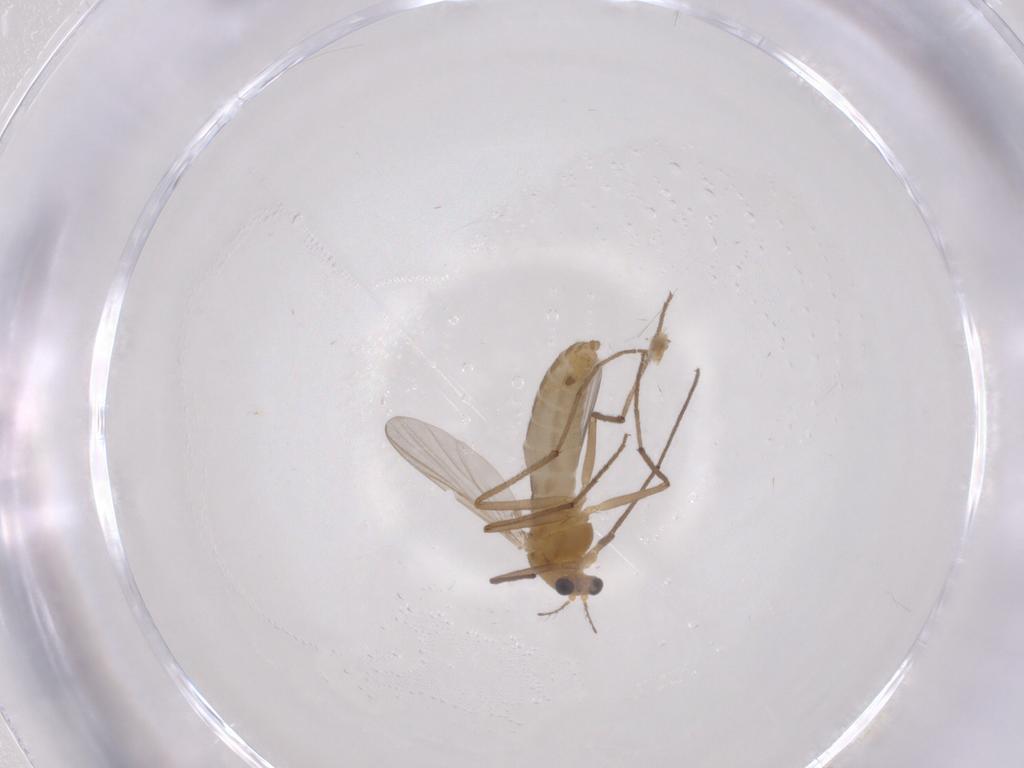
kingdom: Animalia
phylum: Arthropoda
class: Insecta
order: Diptera
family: Chironomidae
